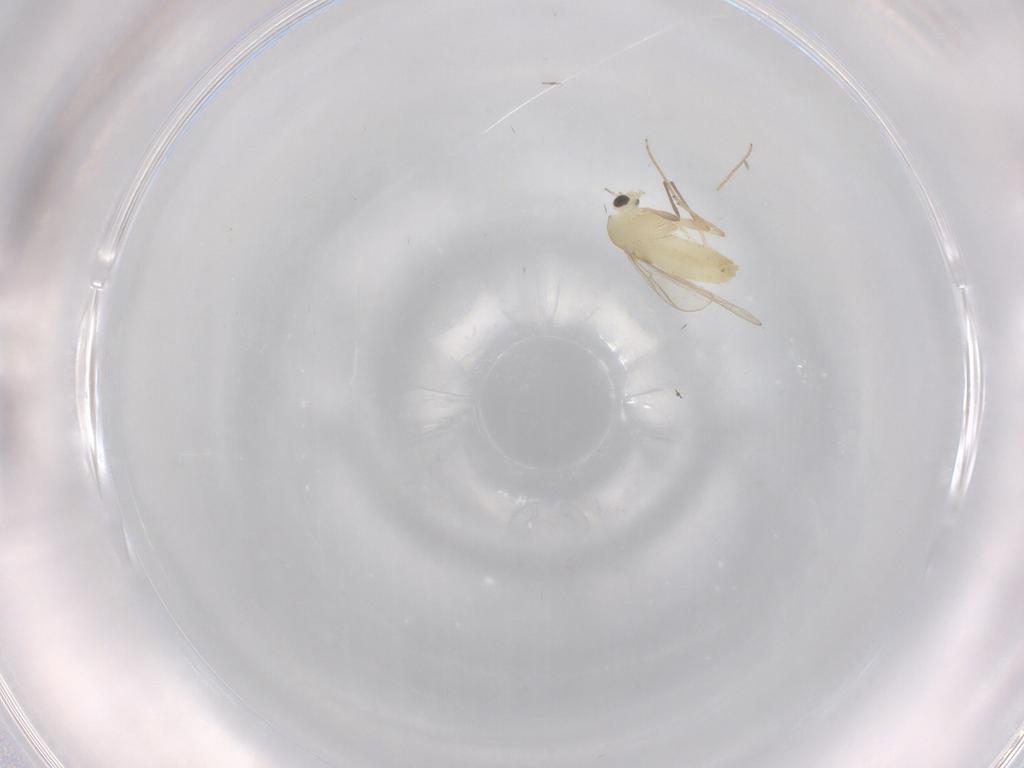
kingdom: Animalia
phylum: Arthropoda
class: Insecta
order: Diptera
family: Chironomidae
